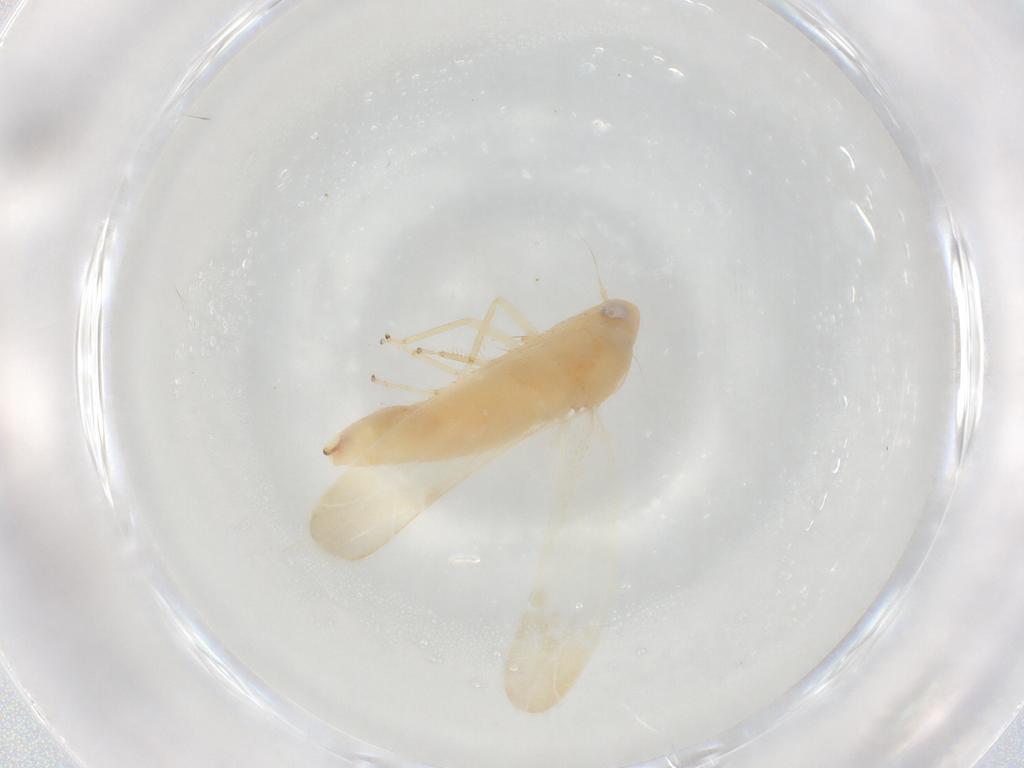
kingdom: Animalia
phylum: Arthropoda
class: Insecta
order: Hemiptera
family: Cicadellidae
